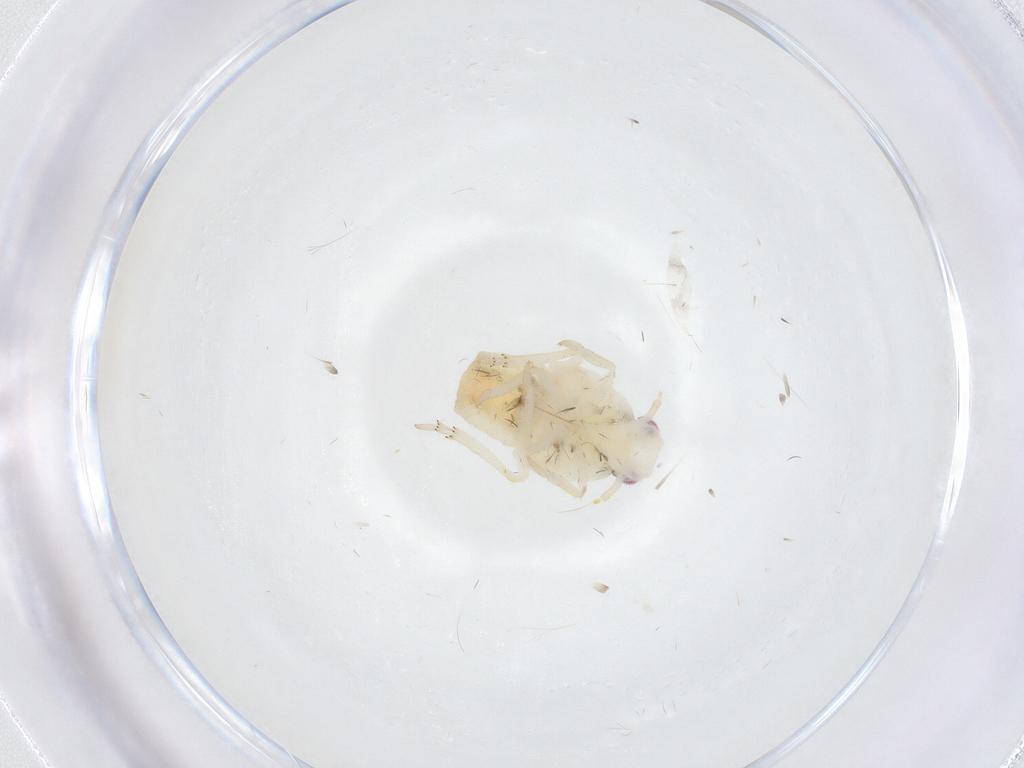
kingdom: Animalia
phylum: Arthropoda
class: Insecta
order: Hemiptera
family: Flatidae
